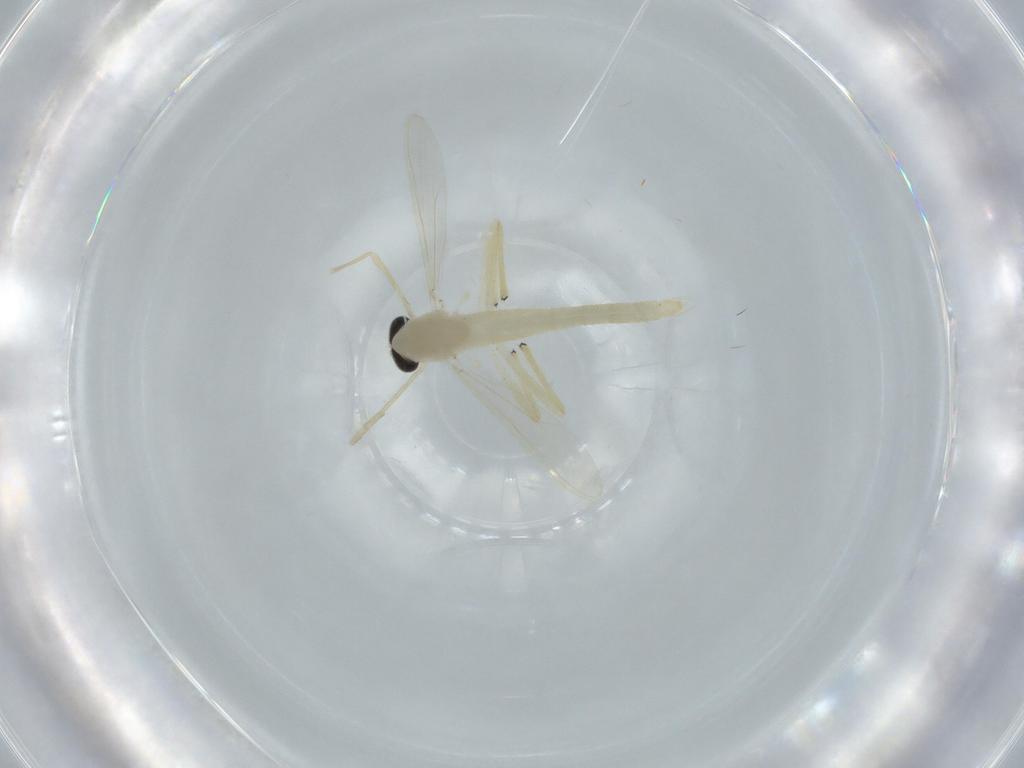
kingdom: Animalia
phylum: Arthropoda
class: Insecta
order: Diptera
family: Chironomidae
